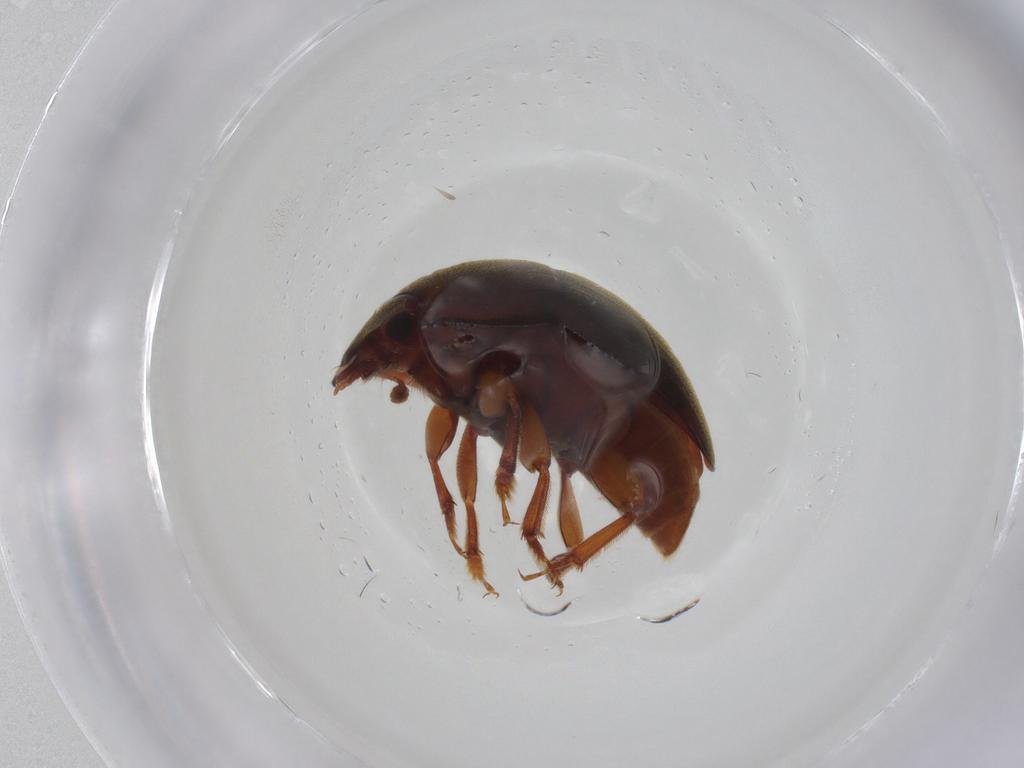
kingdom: Animalia
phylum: Arthropoda
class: Insecta
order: Coleoptera
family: Nitidulidae
